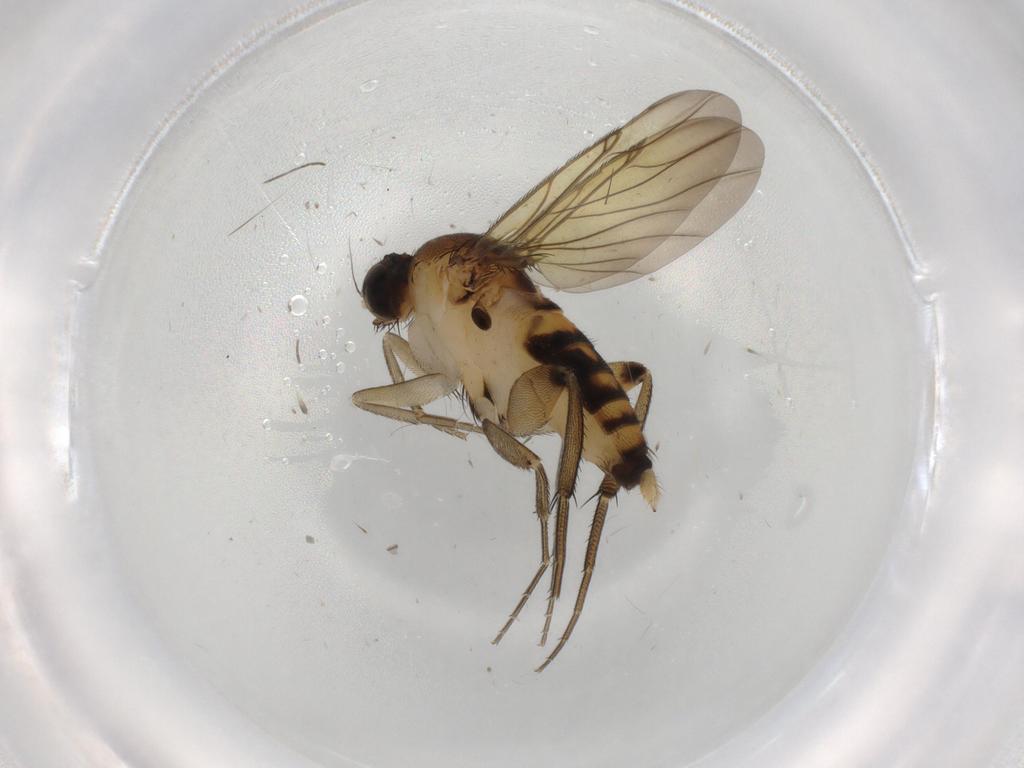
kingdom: Animalia
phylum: Arthropoda
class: Insecta
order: Diptera
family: Phoridae
